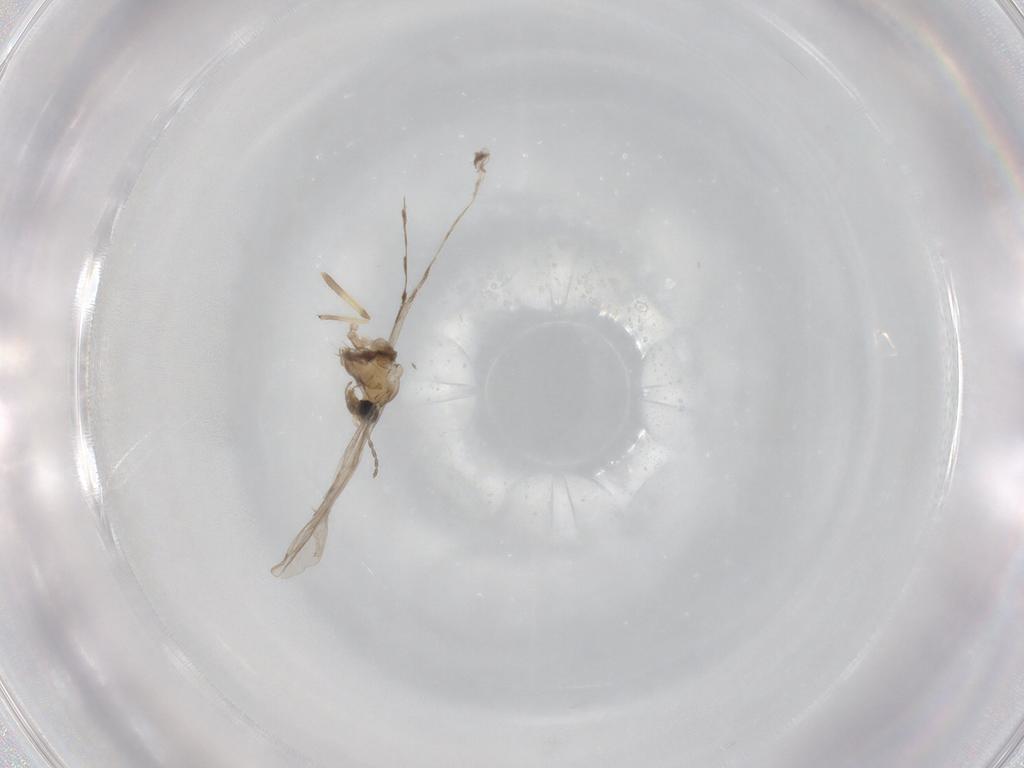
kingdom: Animalia
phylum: Arthropoda
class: Insecta
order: Diptera
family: Cecidomyiidae
